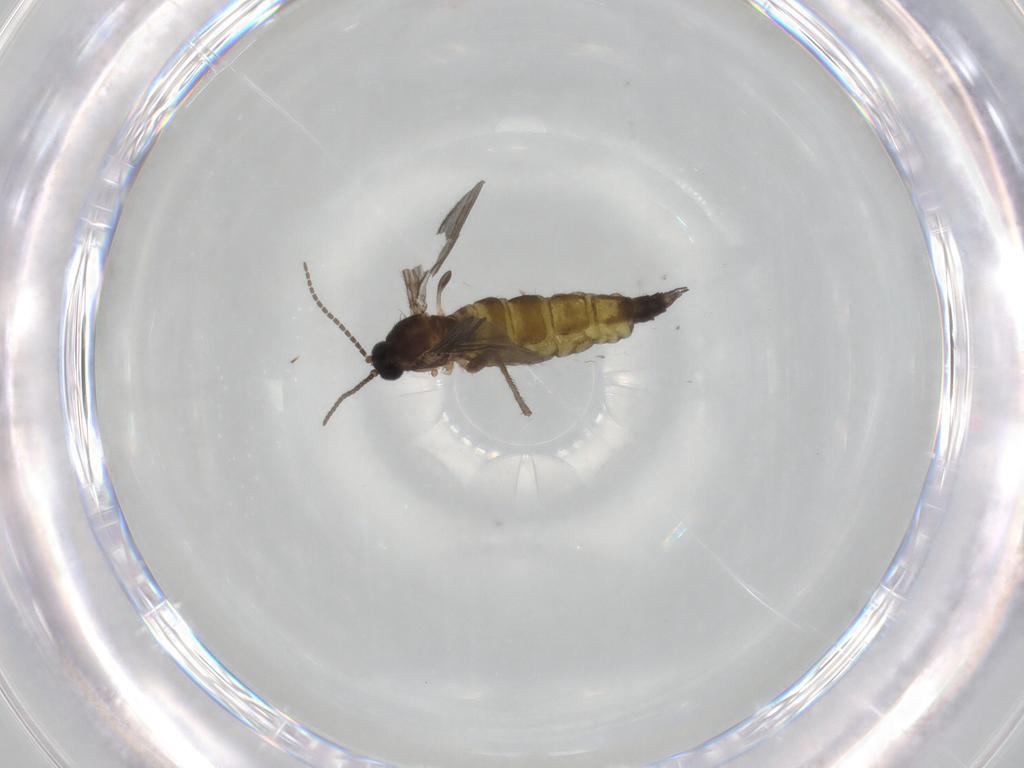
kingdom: Animalia
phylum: Arthropoda
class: Insecta
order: Diptera
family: Sciaridae
